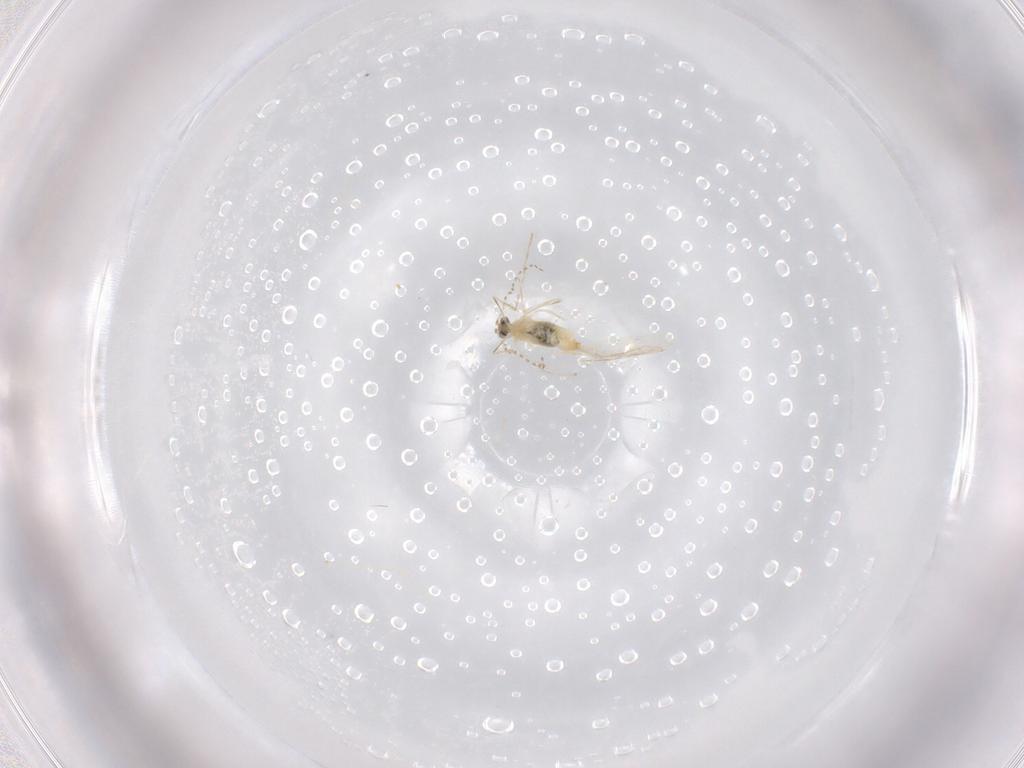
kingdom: Animalia
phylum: Arthropoda
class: Insecta
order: Diptera
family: Cecidomyiidae
